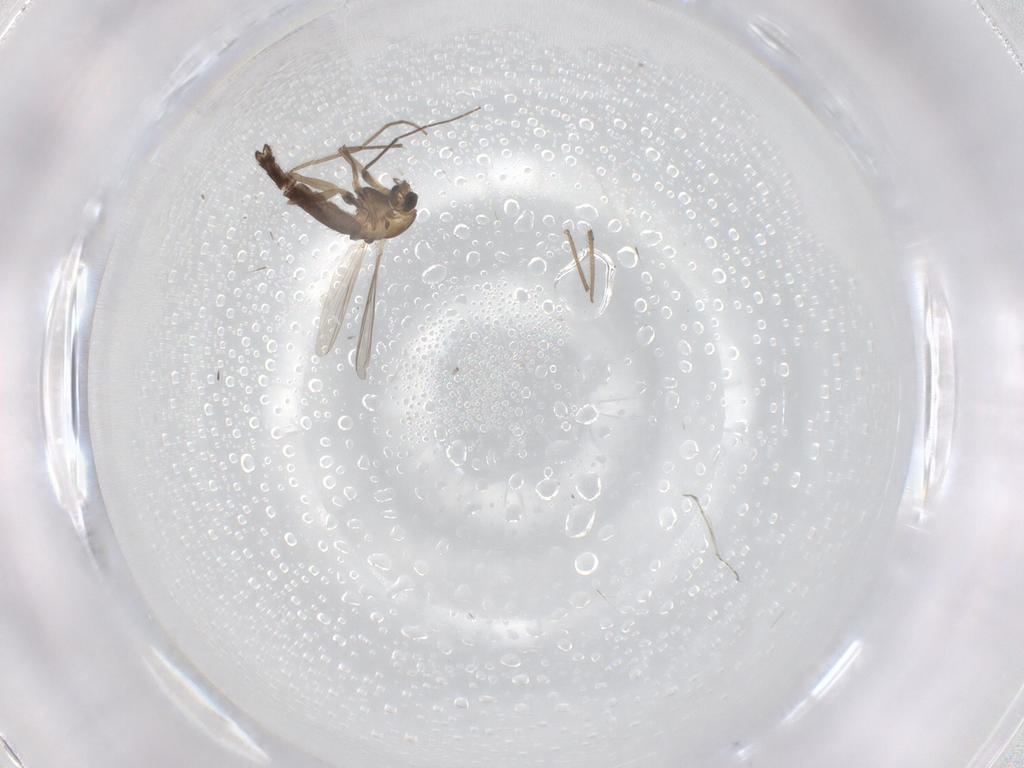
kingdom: Animalia
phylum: Arthropoda
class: Insecta
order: Diptera
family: Chironomidae
